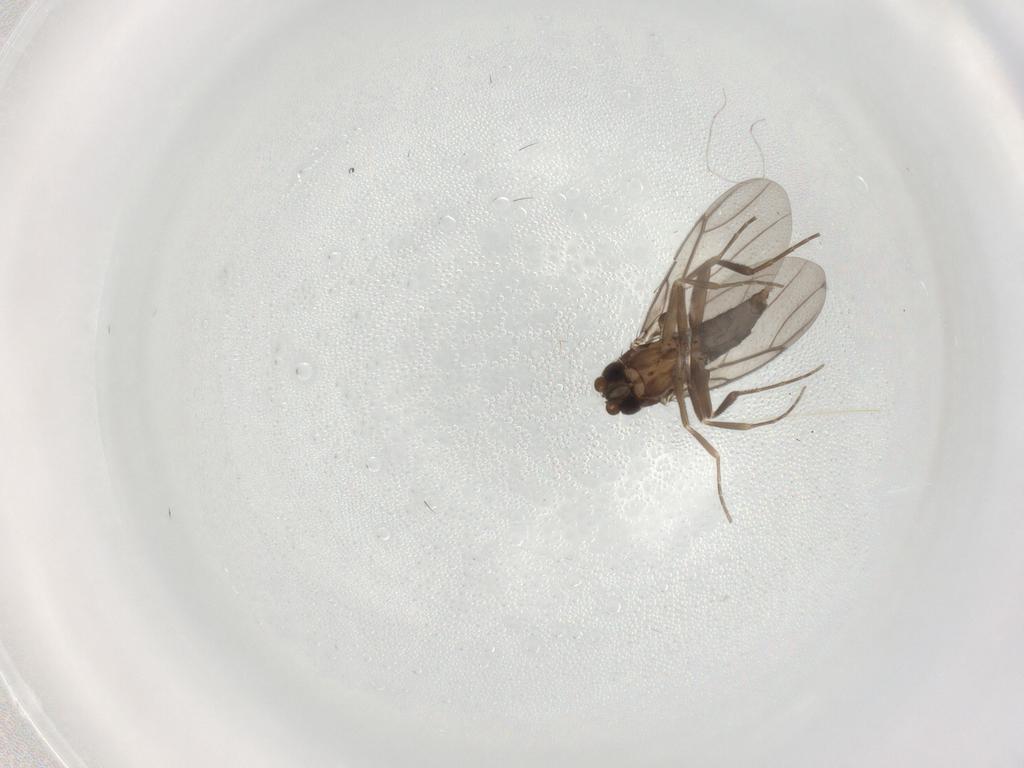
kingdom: Animalia
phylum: Arthropoda
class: Insecta
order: Diptera
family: Phoridae
